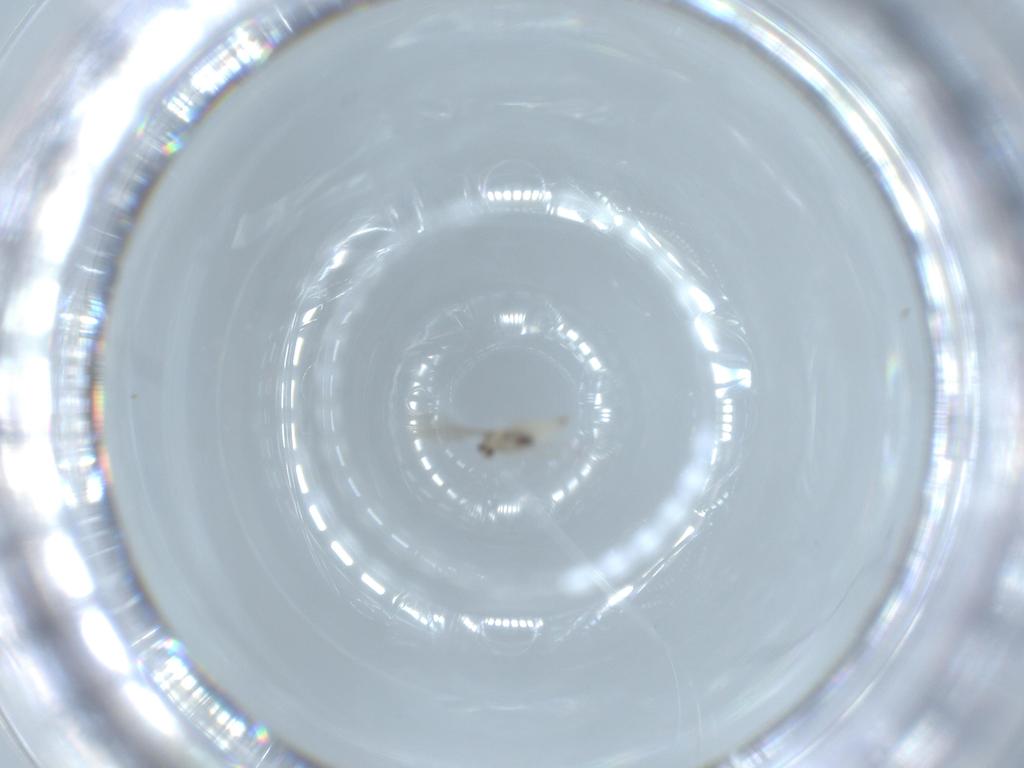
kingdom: Animalia
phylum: Arthropoda
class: Insecta
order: Diptera
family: Cecidomyiidae
